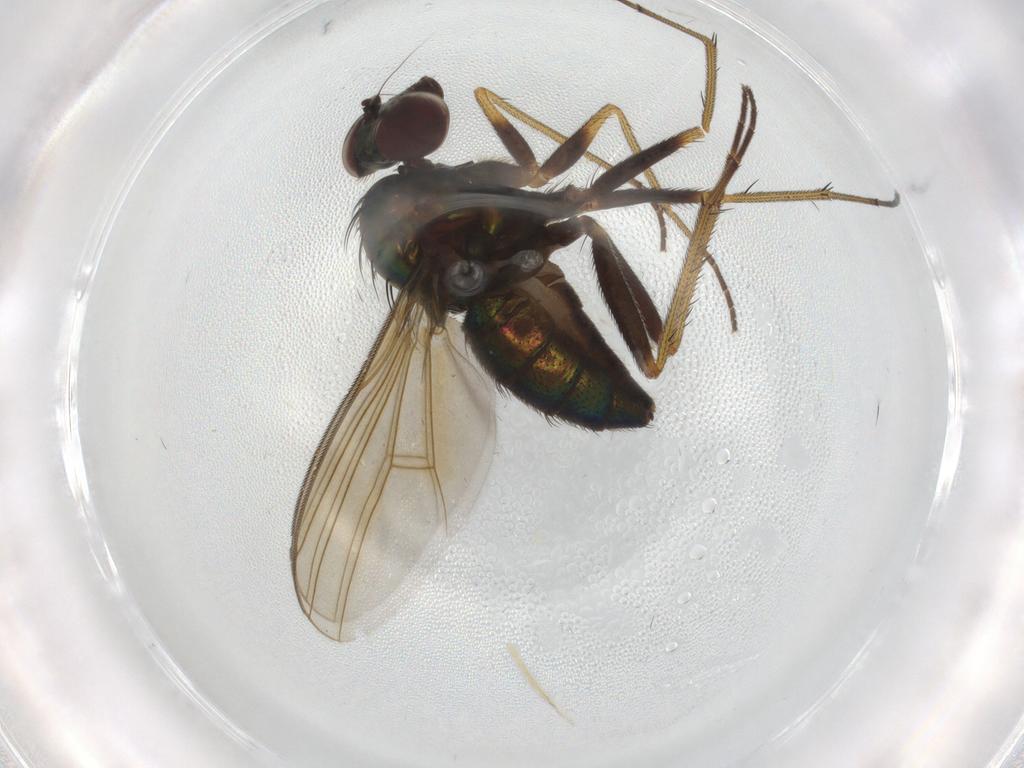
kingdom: Animalia
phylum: Arthropoda
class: Insecta
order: Diptera
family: Dolichopodidae
